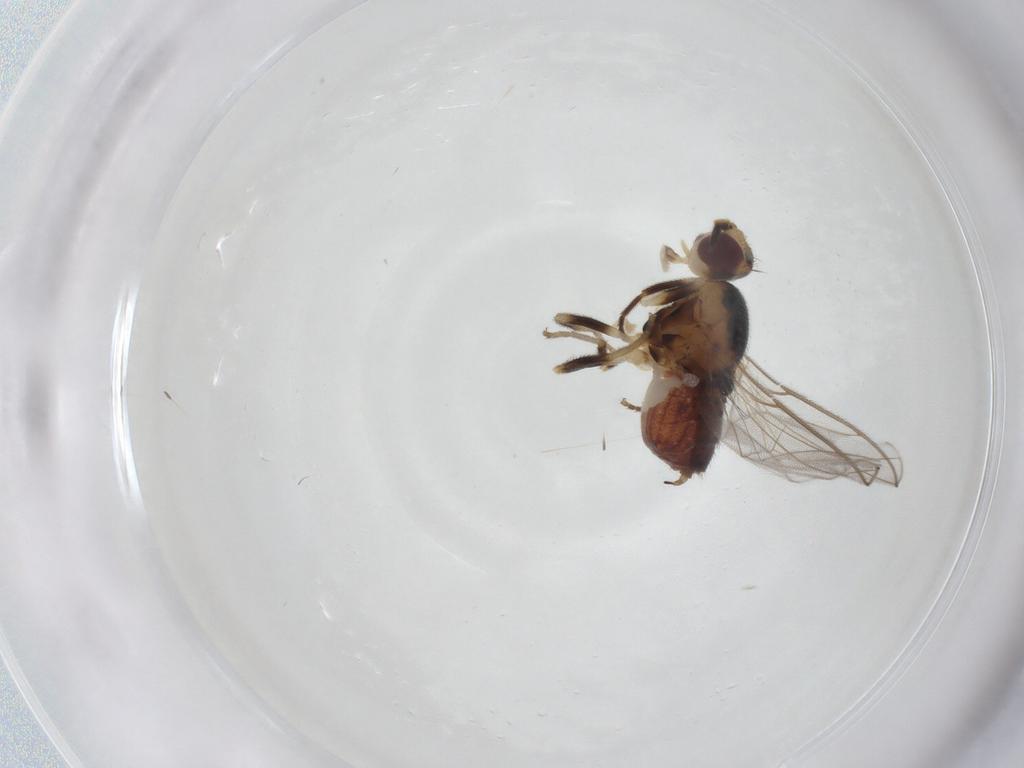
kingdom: Animalia
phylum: Arthropoda
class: Insecta
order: Diptera
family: Chloropidae
